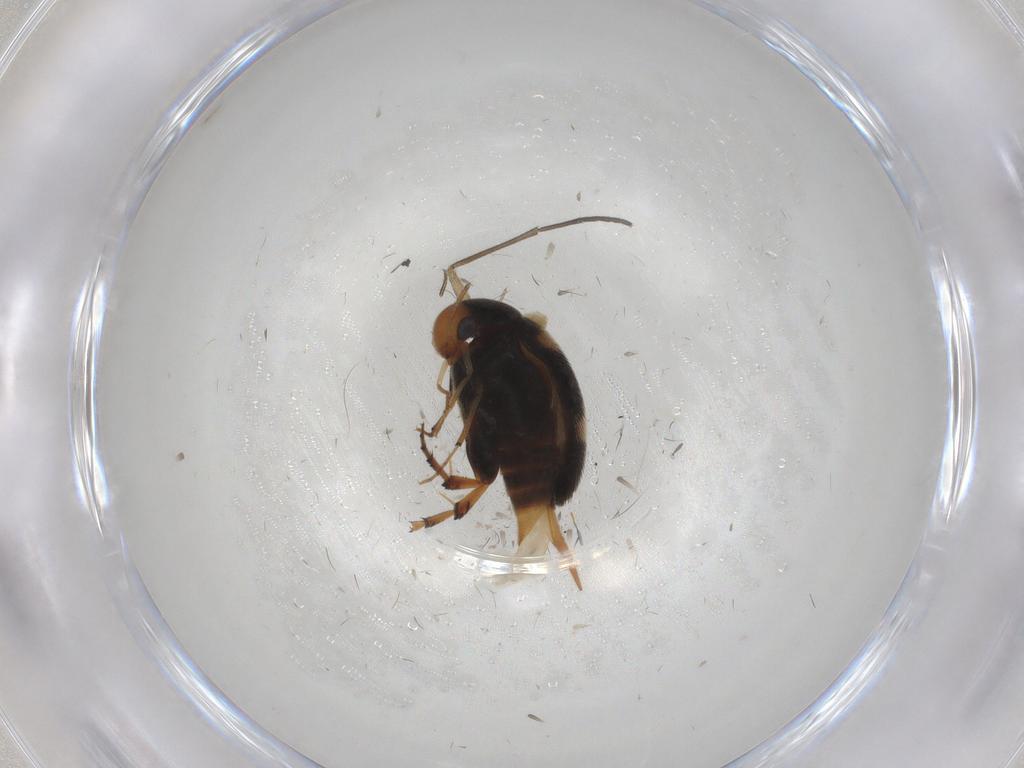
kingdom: Animalia
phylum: Arthropoda
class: Insecta
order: Coleoptera
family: Mordellidae
